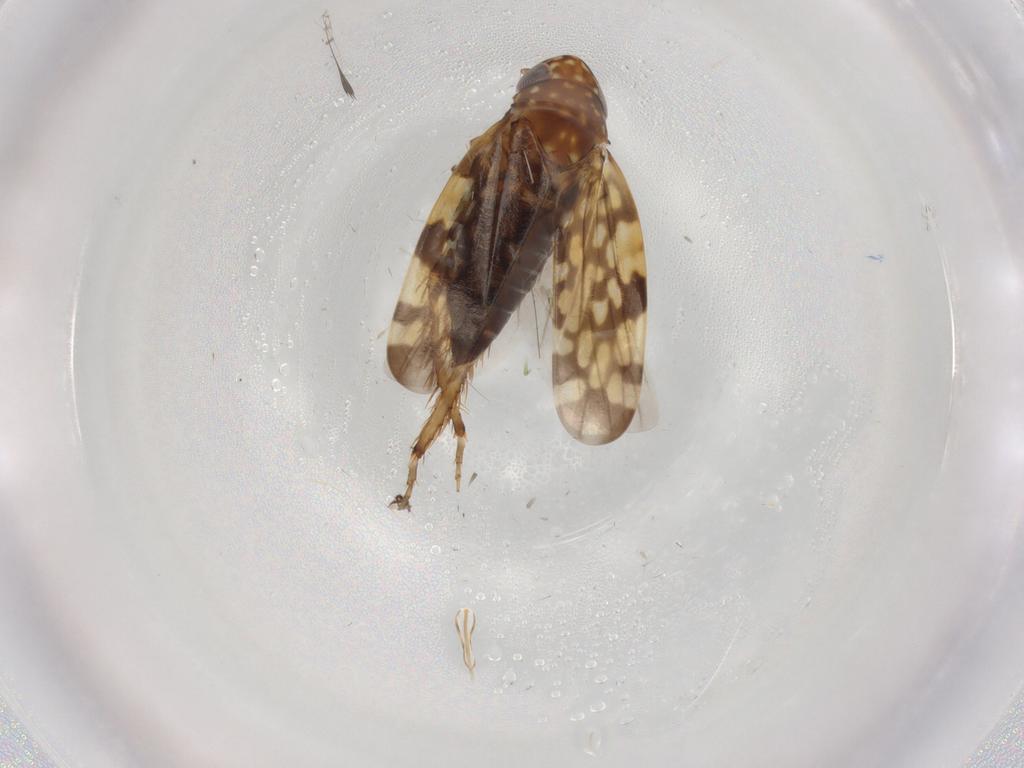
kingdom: Animalia
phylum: Arthropoda
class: Insecta
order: Hemiptera
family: Cicadellidae
